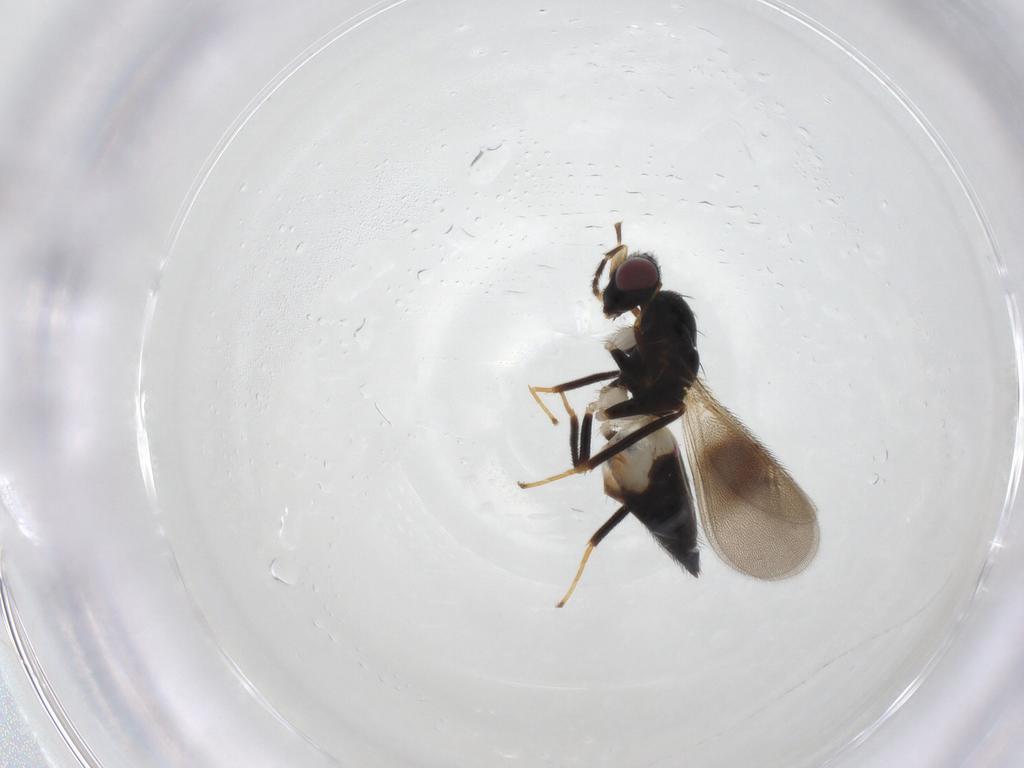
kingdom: Animalia
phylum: Arthropoda
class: Insecta
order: Hymenoptera
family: Eulophidae
